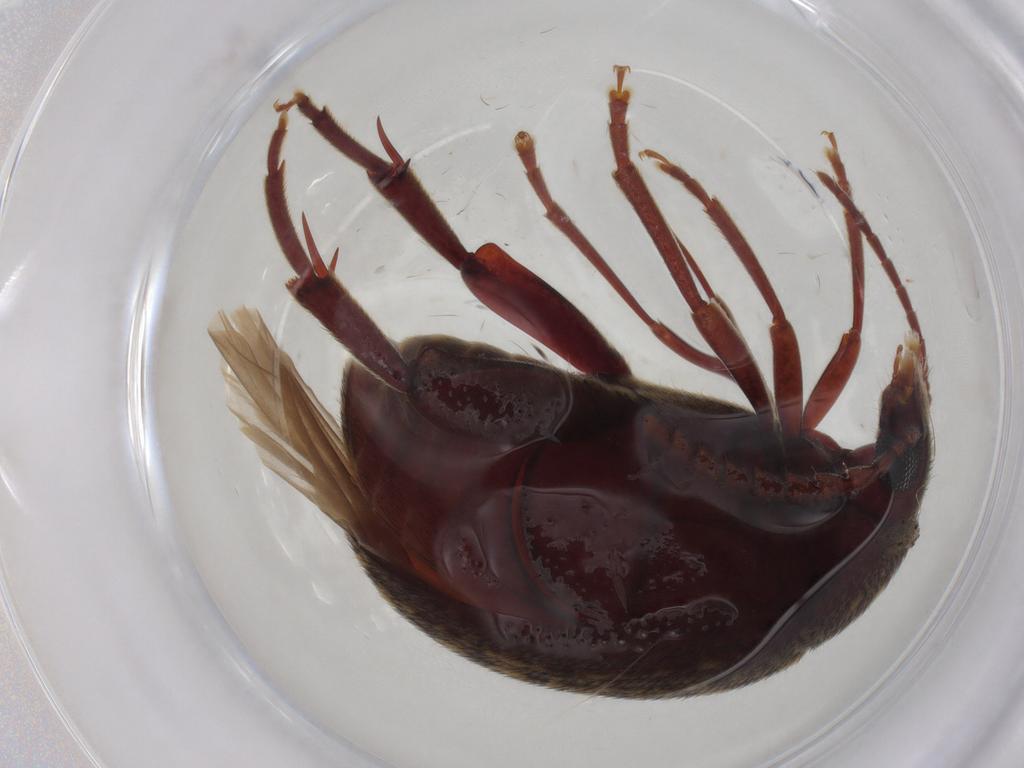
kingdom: Animalia
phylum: Arthropoda
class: Insecta
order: Coleoptera
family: Chrysomelidae
